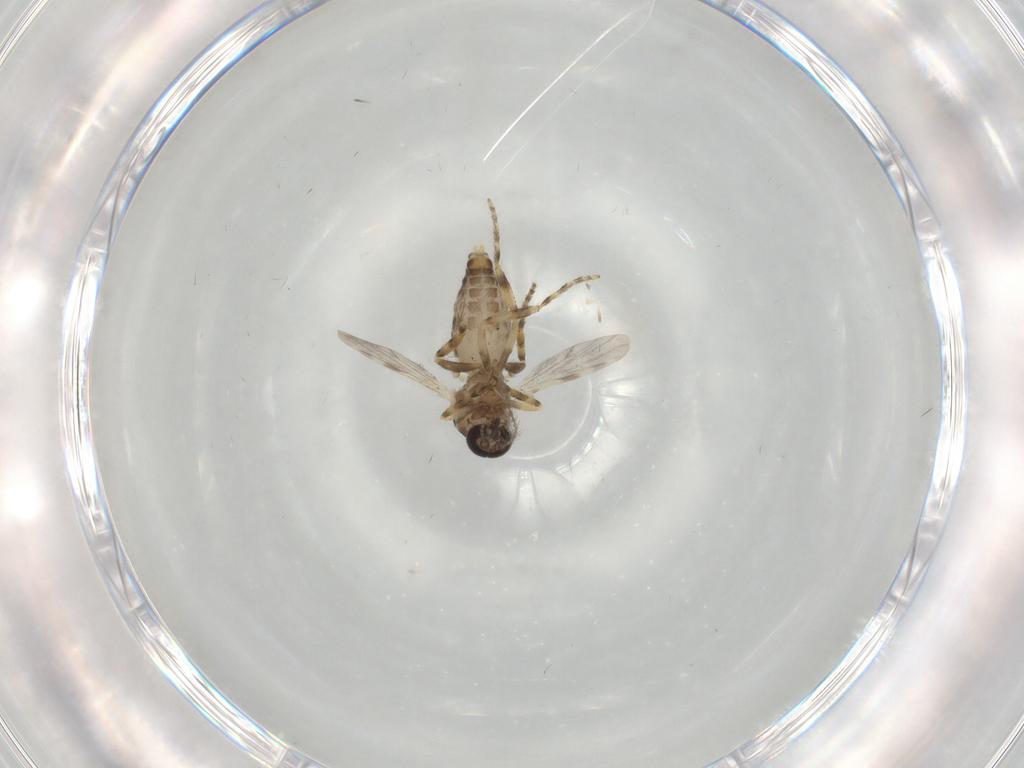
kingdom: Animalia
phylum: Arthropoda
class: Insecta
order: Diptera
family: Ceratopogonidae
